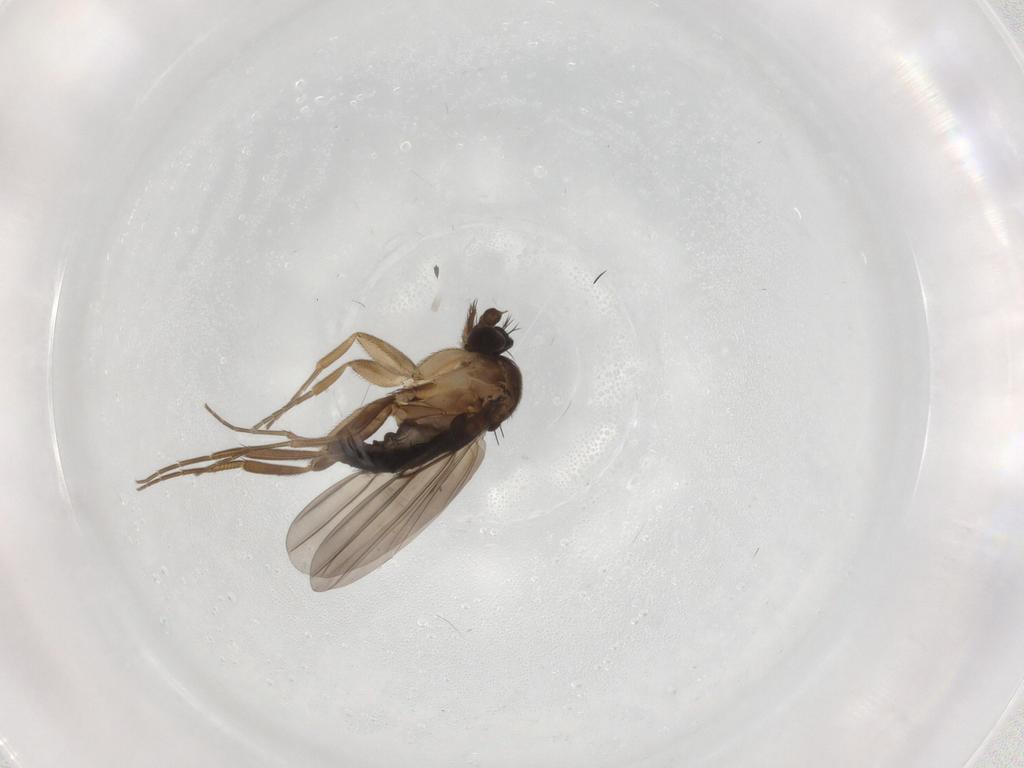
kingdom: Animalia
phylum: Arthropoda
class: Insecta
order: Diptera
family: Phoridae
